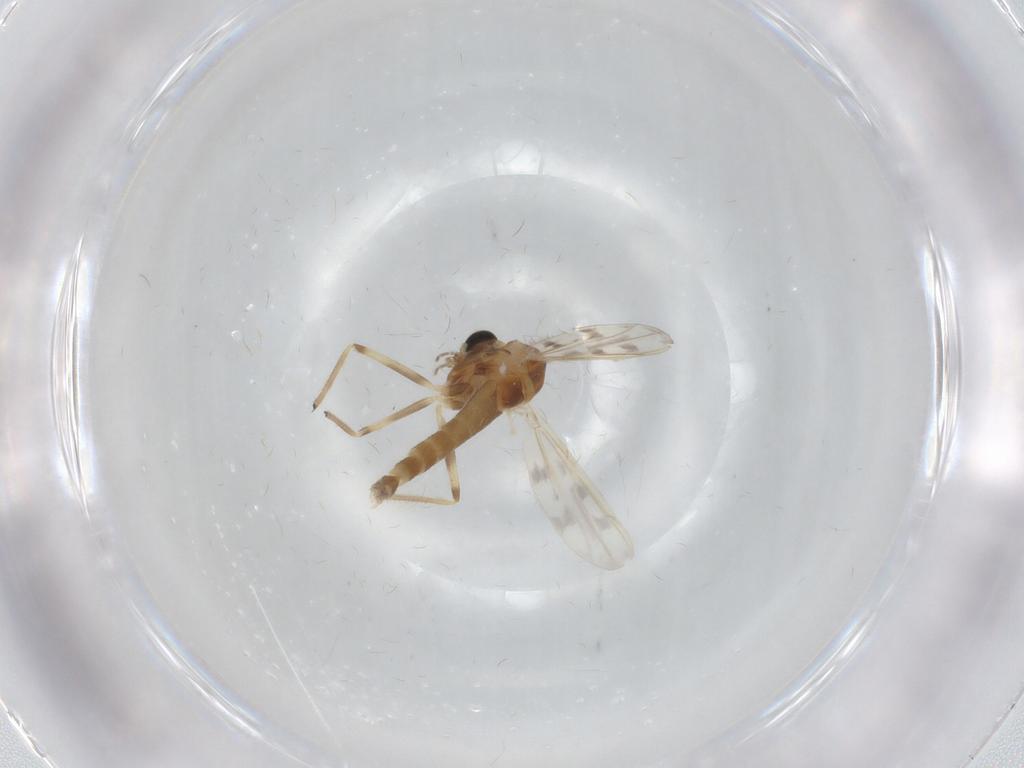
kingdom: Animalia
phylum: Arthropoda
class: Insecta
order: Diptera
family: Chironomidae
